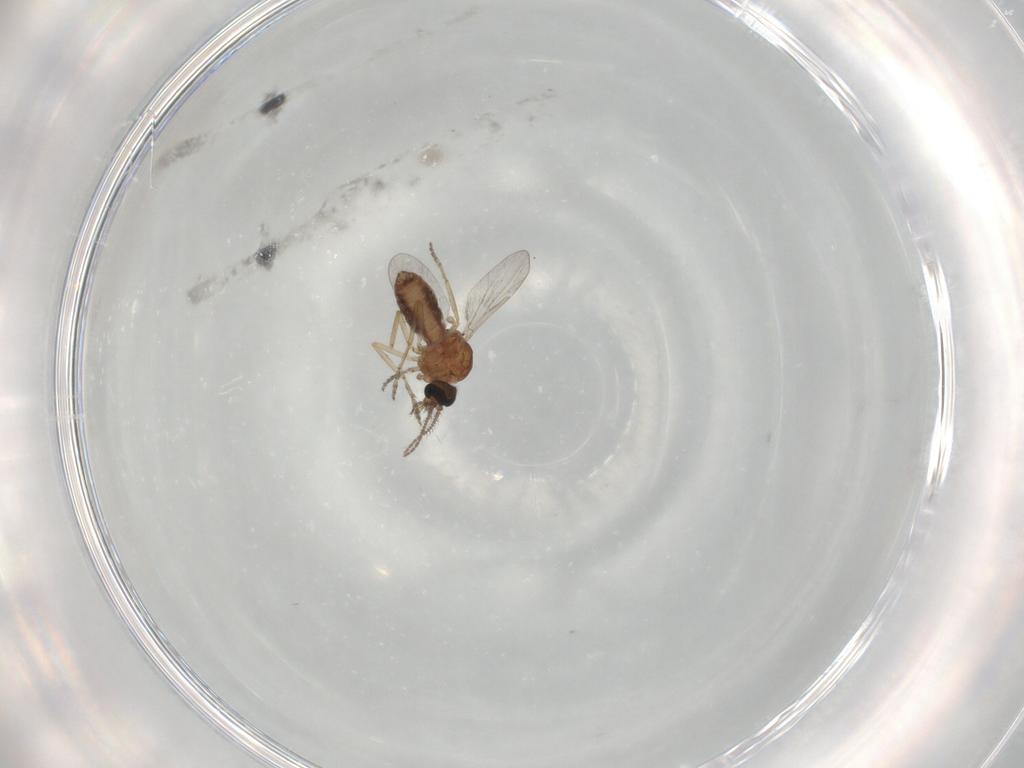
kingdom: Animalia
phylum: Arthropoda
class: Insecta
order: Diptera
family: Ceratopogonidae
